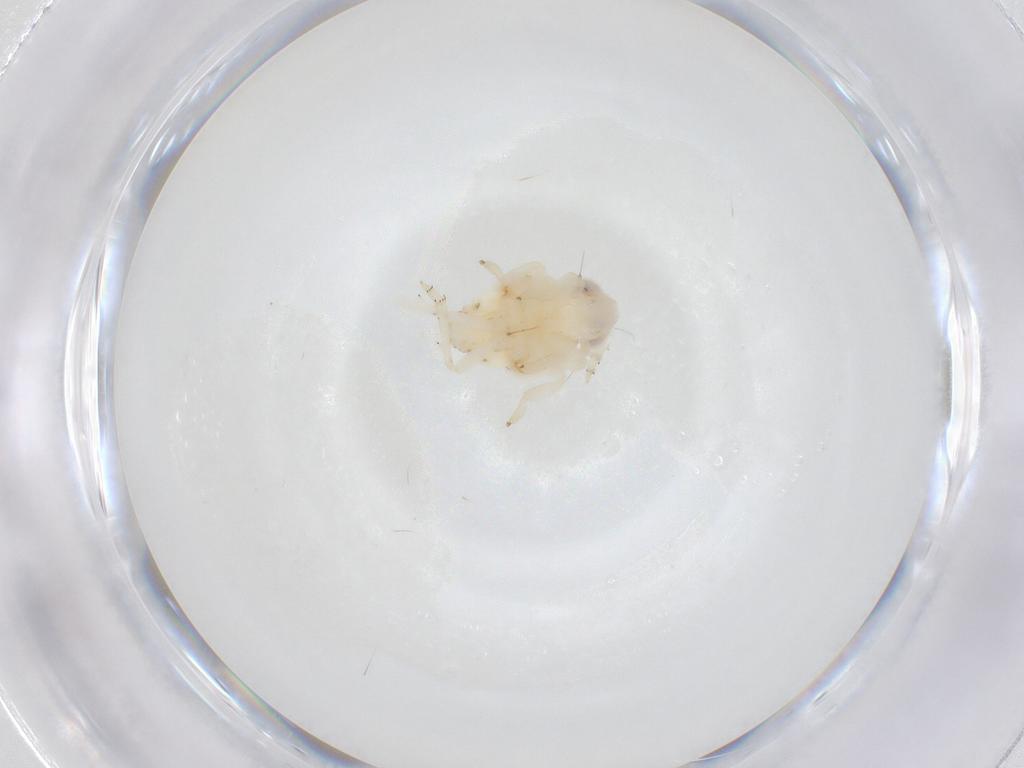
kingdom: Animalia
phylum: Arthropoda
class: Insecta
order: Hemiptera
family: Nogodinidae
